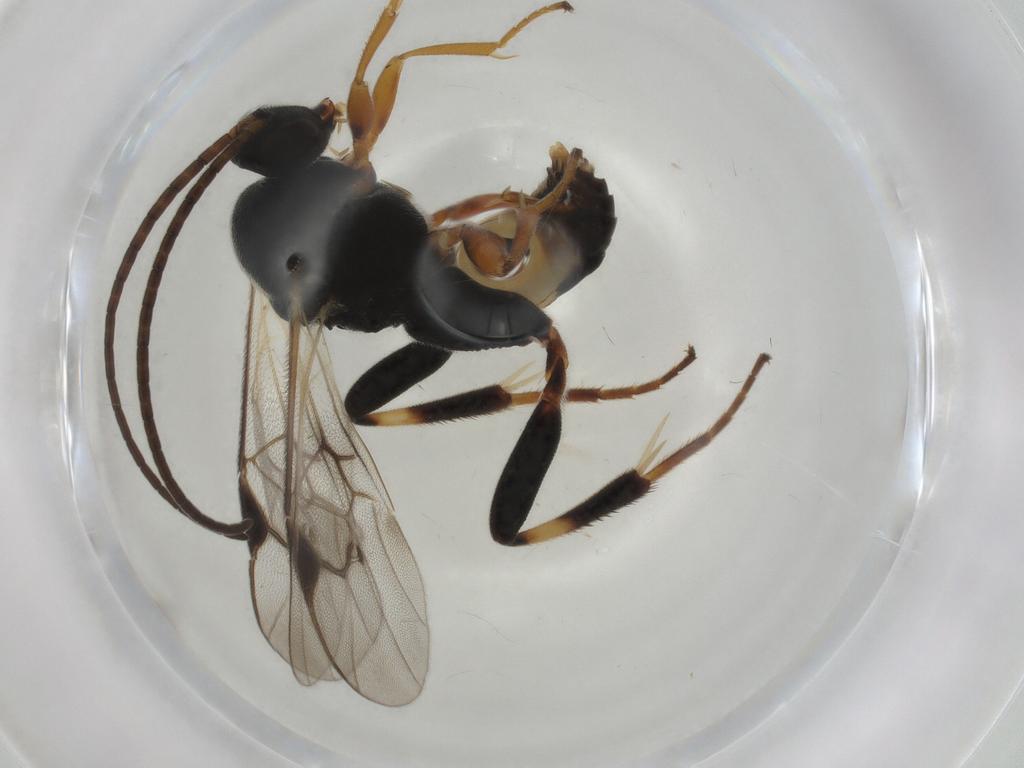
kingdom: Animalia
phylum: Arthropoda
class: Insecta
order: Hymenoptera
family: Braconidae
